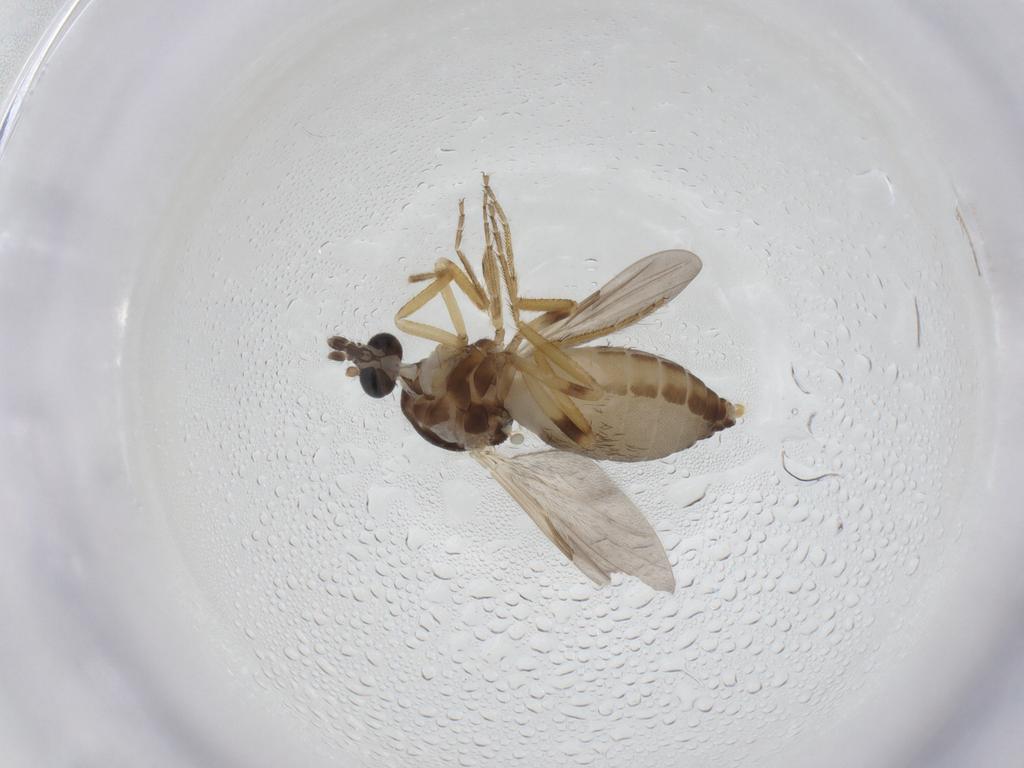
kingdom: Animalia
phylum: Arthropoda
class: Insecta
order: Diptera
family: Ceratopogonidae
